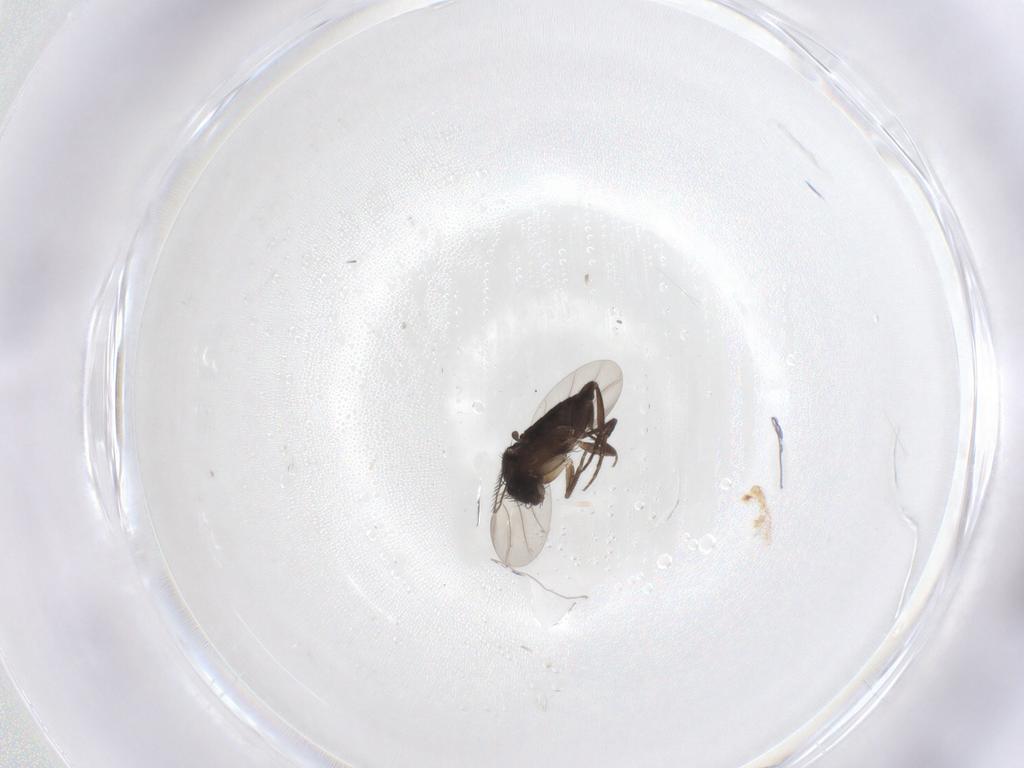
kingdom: Animalia
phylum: Arthropoda
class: Insecta
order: Diptera
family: Phoridae
